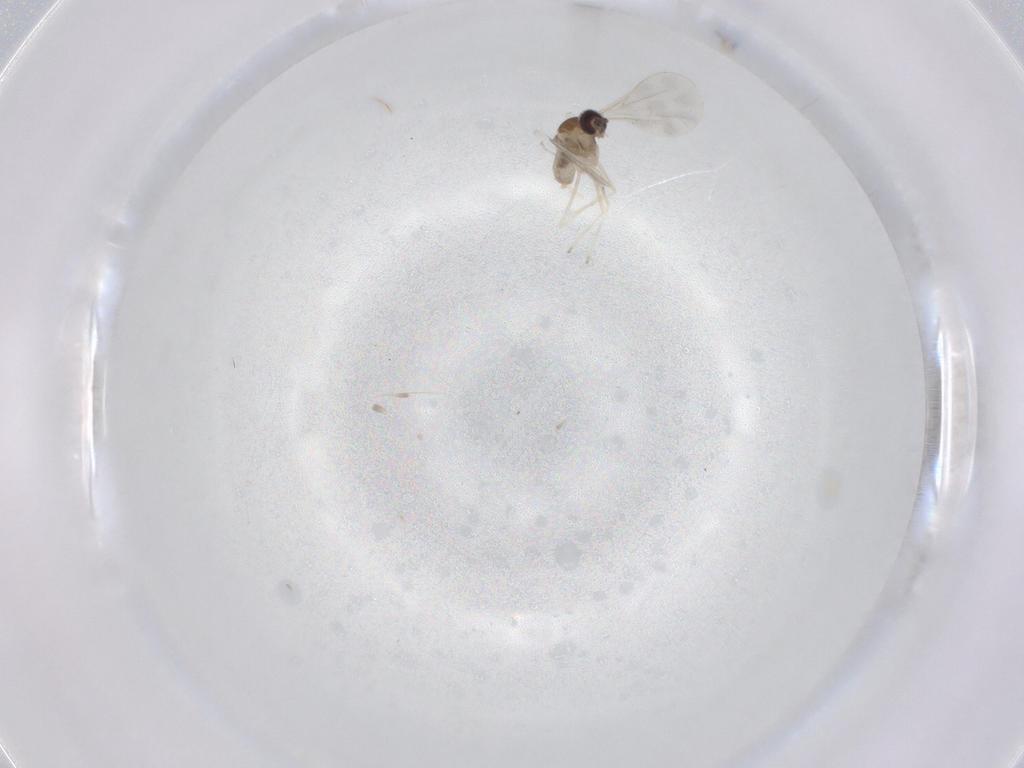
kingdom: Animalia
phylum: Arthropoda
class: Insecta
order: Diptera
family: Cecidomyiidae
